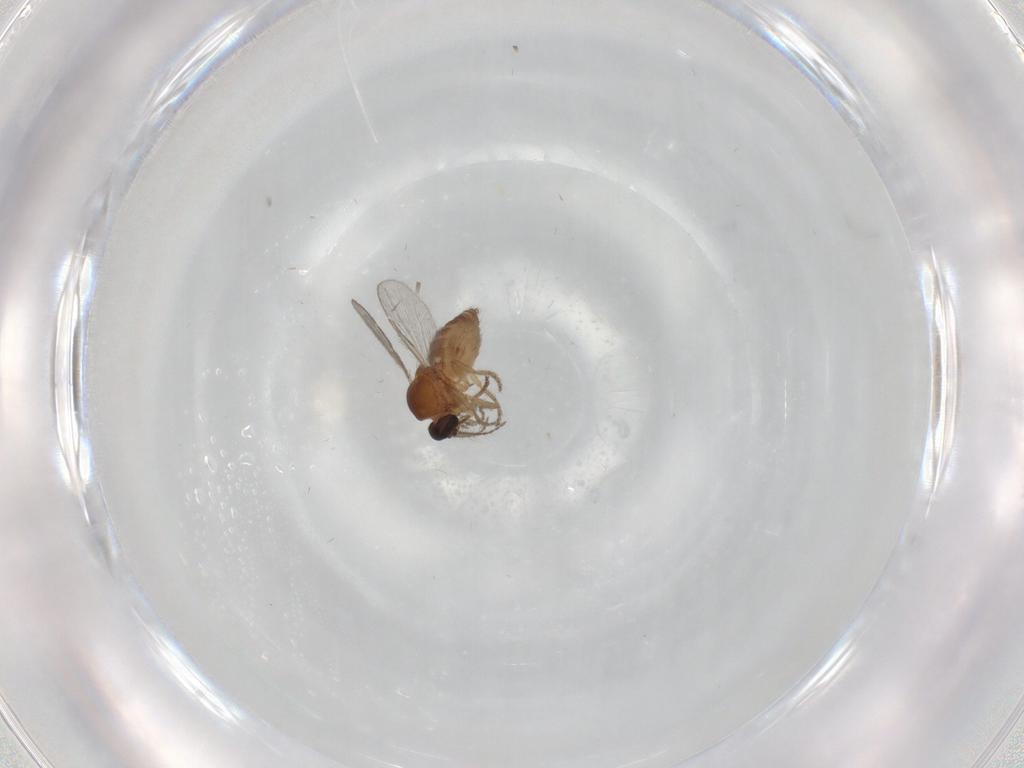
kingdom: Animalia
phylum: Arthropoda
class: Insecta
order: Diptera
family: Ceratopogonidae
